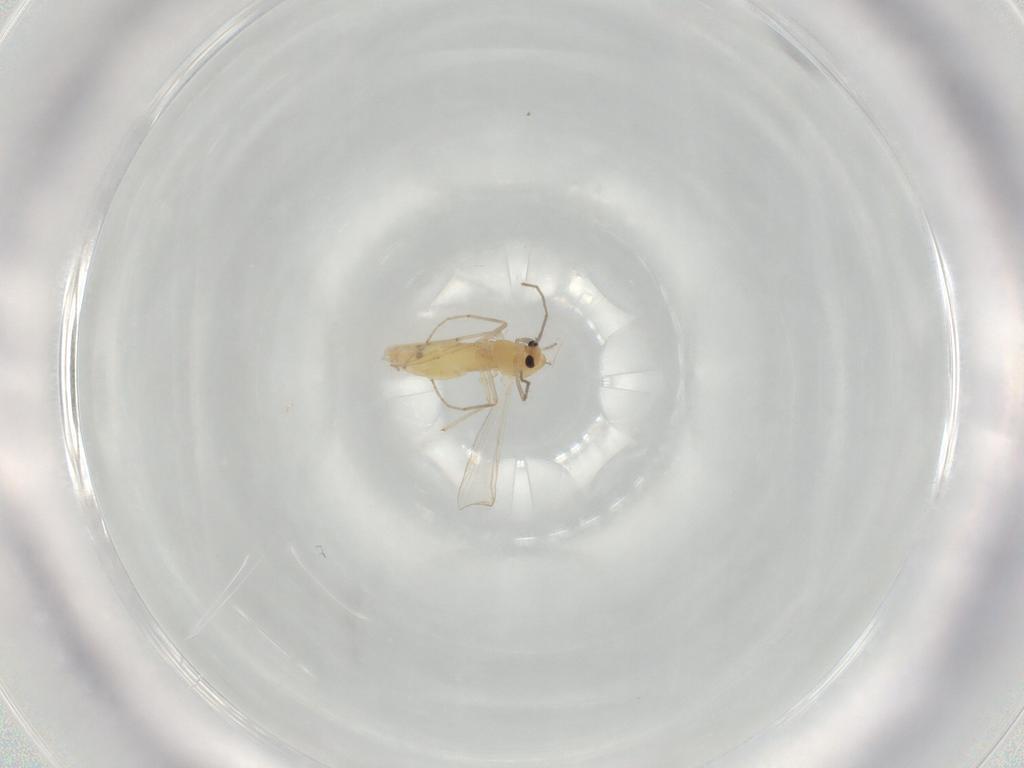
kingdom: Animalia
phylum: Arthropoda
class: Insecta
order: Diptera
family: Chironomidae
